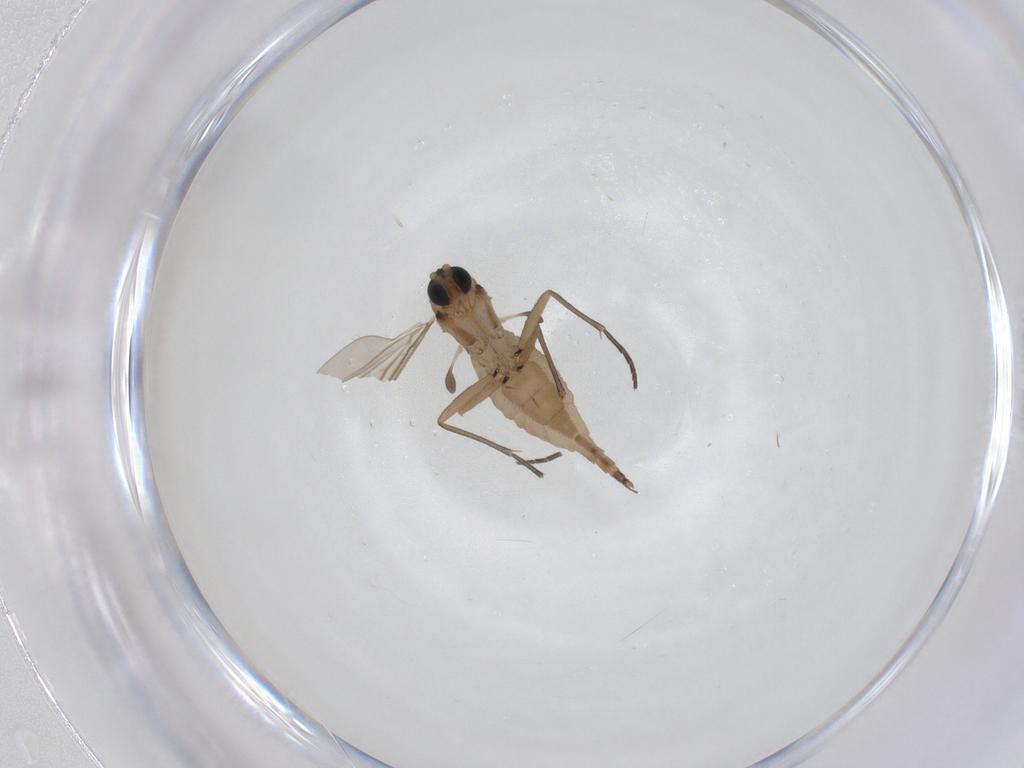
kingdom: Animalia
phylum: Arthropoda
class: Insecta
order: Diptera
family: Sciaridae
